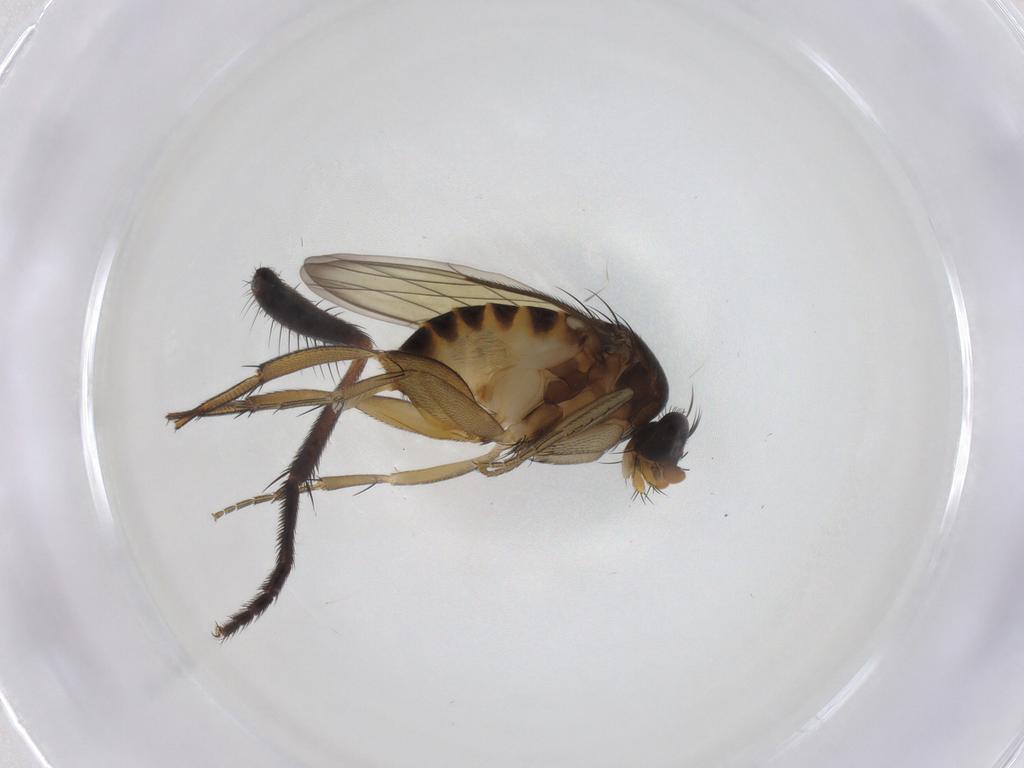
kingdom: Animalia
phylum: Arthropoda
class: Insecta
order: Diptera
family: Phoridae
